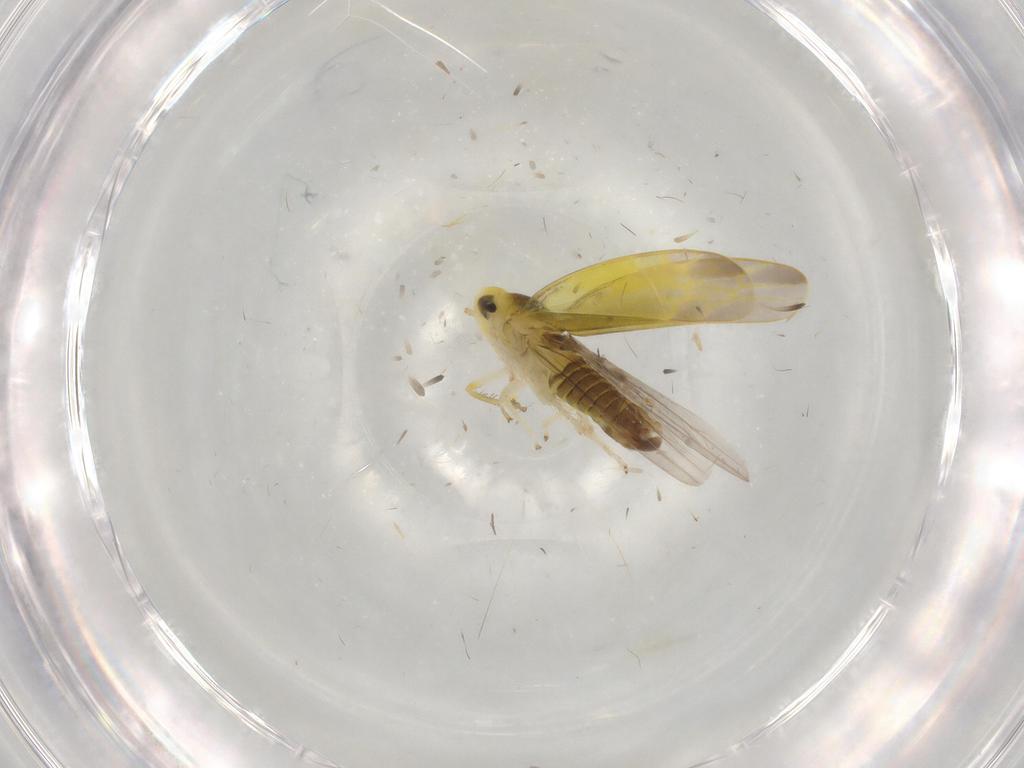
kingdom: Animalia
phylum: Arthropoda
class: Insecta
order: Hemiptera
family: Cicadellidae
